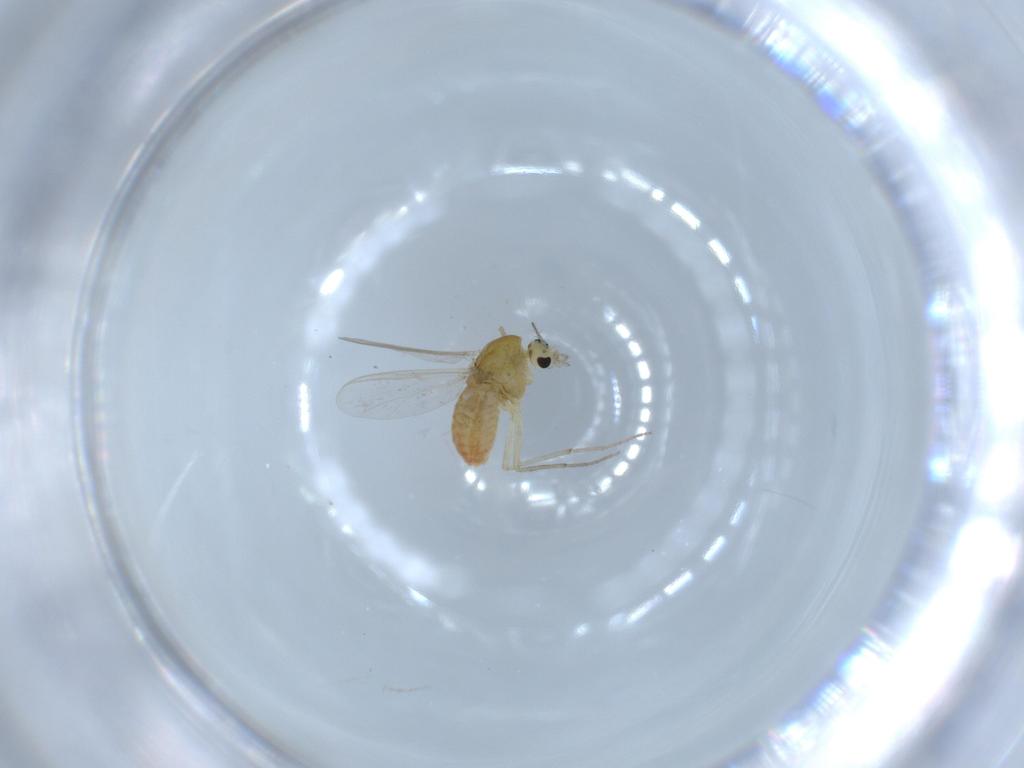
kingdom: Animalia
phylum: Arthropoda
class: Insecta
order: Diptera
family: Chironomidae
